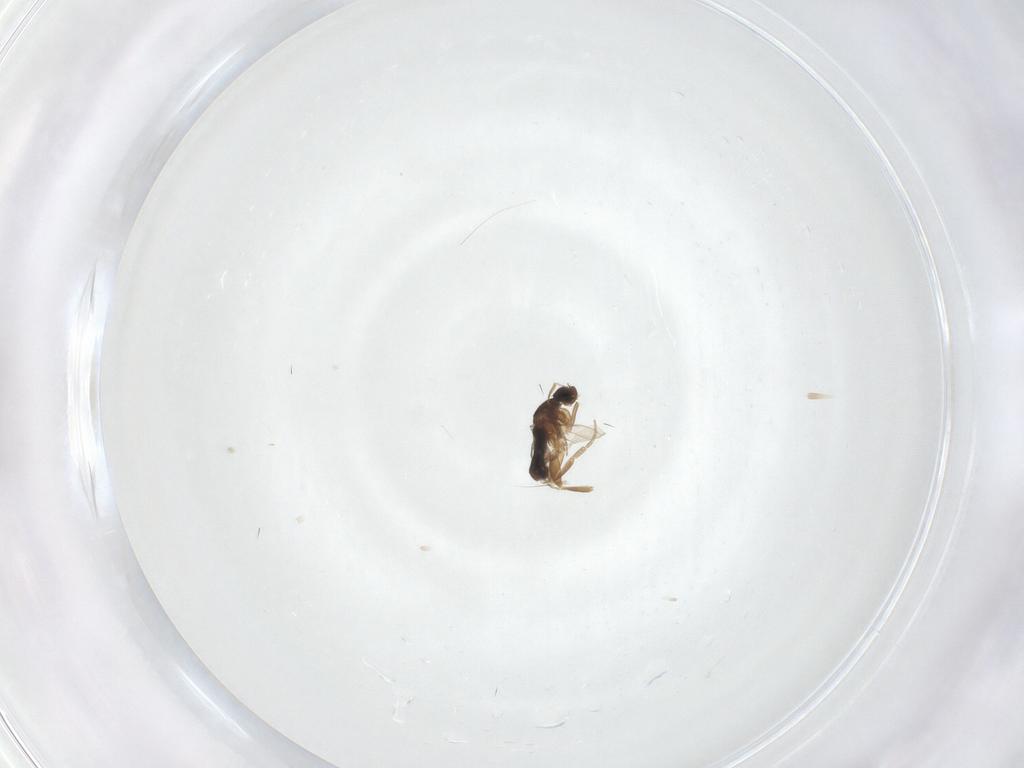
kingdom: Animalia
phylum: Arthropoda
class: Insecta
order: Diptera
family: Phoridae
